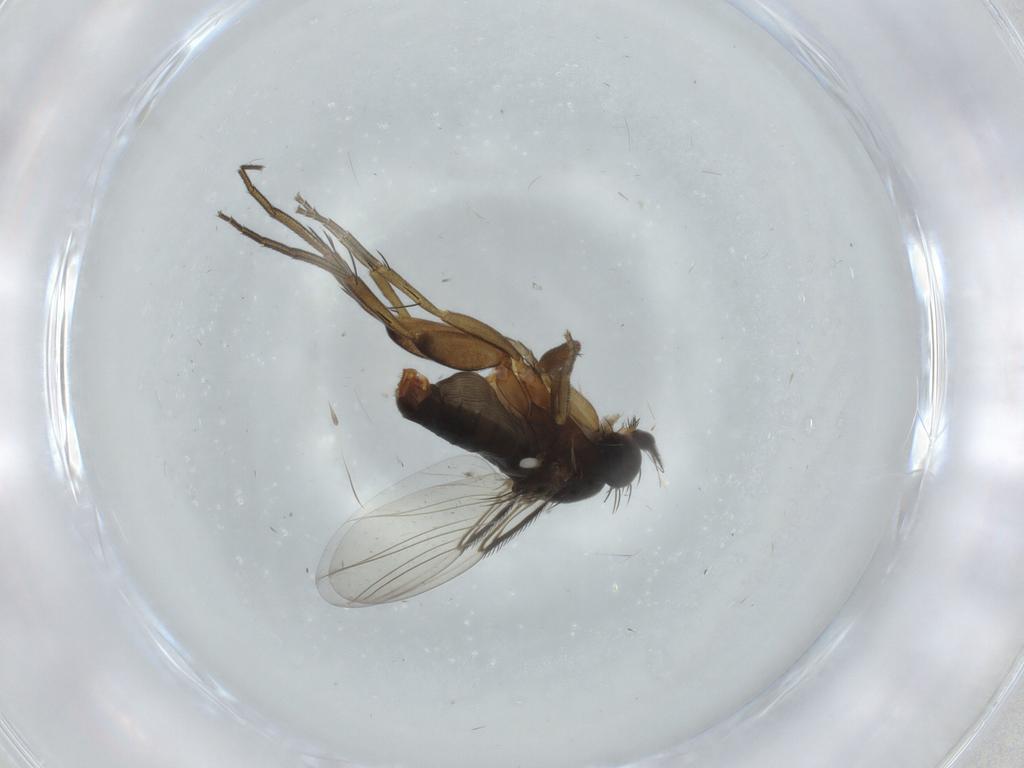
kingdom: Animalia
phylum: Arthropoda
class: Insecta
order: Diptera
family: Phoridae
